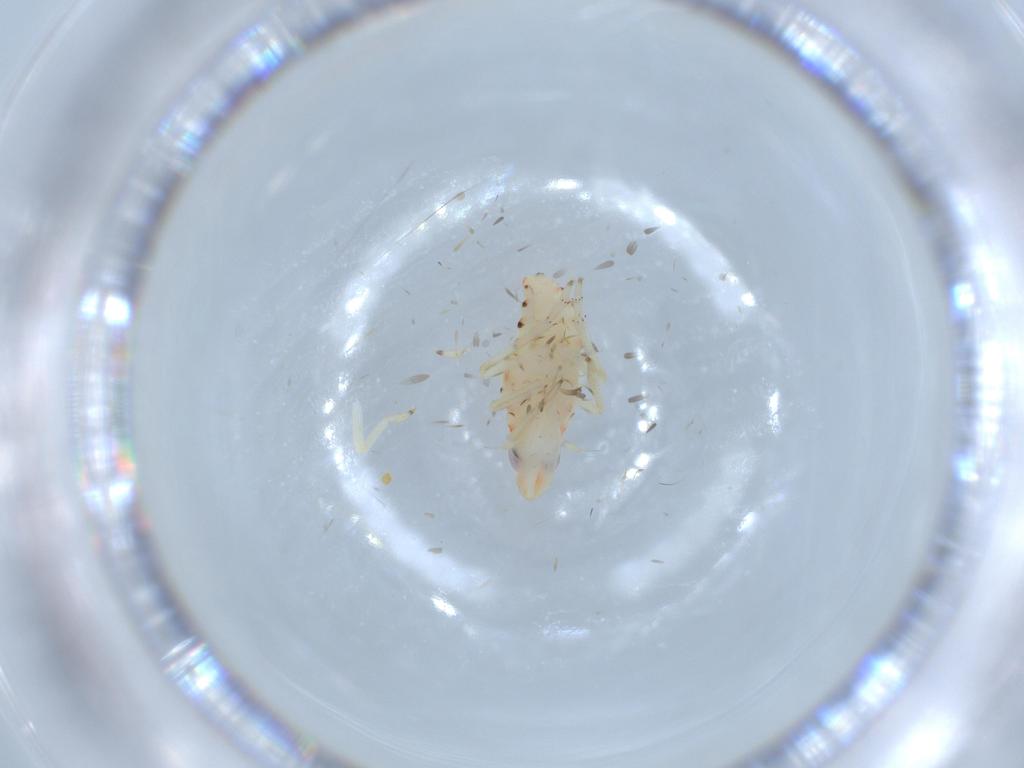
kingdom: Animalia
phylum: Arthropoda
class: Insecta
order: Hemiptera
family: Tropiduchidae
